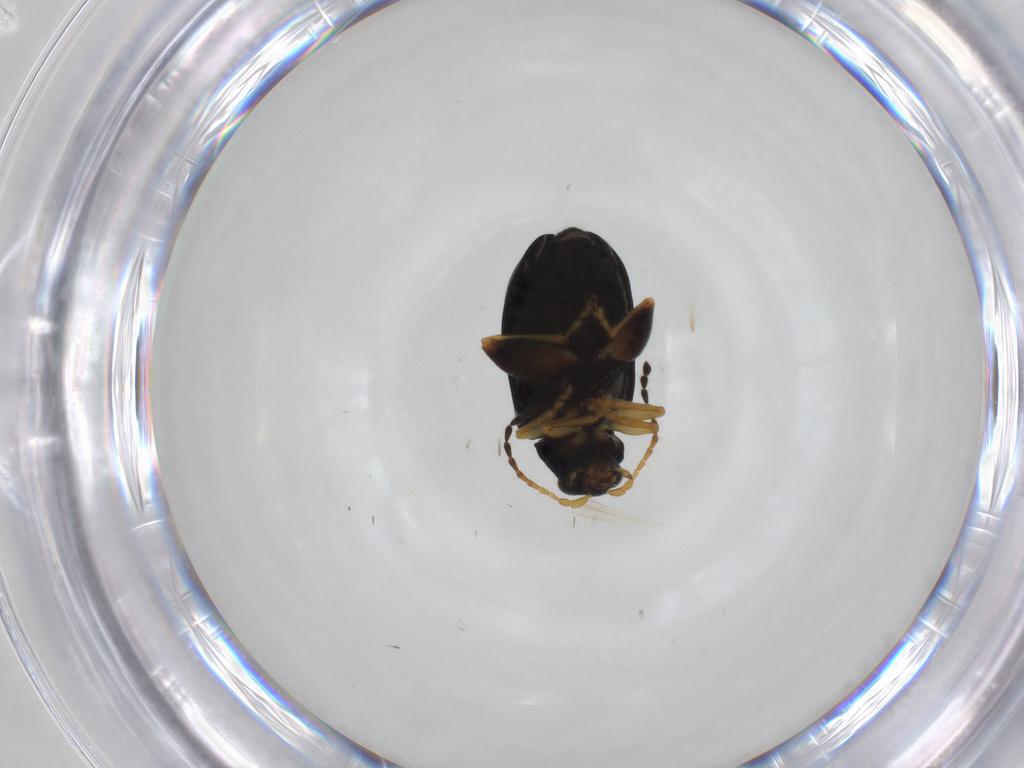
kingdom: Animalia
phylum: Arthropoda
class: Insecta
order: Coleoptera
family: Chrysomelidae
